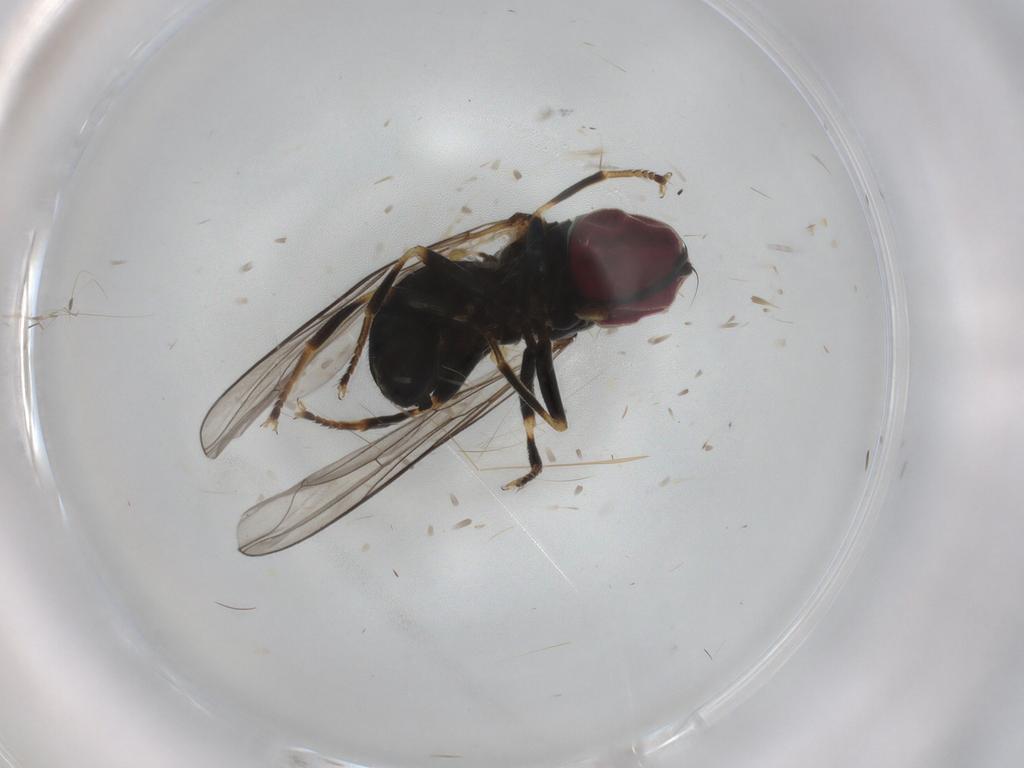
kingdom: Animalia
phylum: Arthropoda
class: Insecta
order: Diptera
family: Pipunculidae
